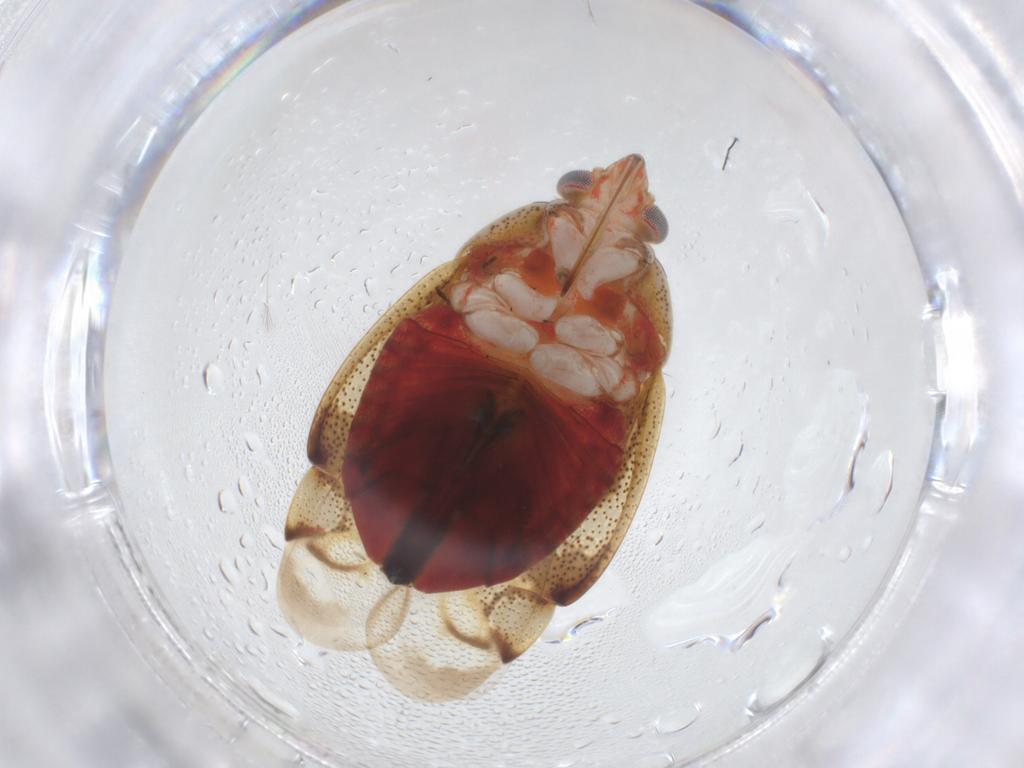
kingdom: Animalia
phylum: Arthropoda
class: Insecta
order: Hemiptera
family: Miridae
